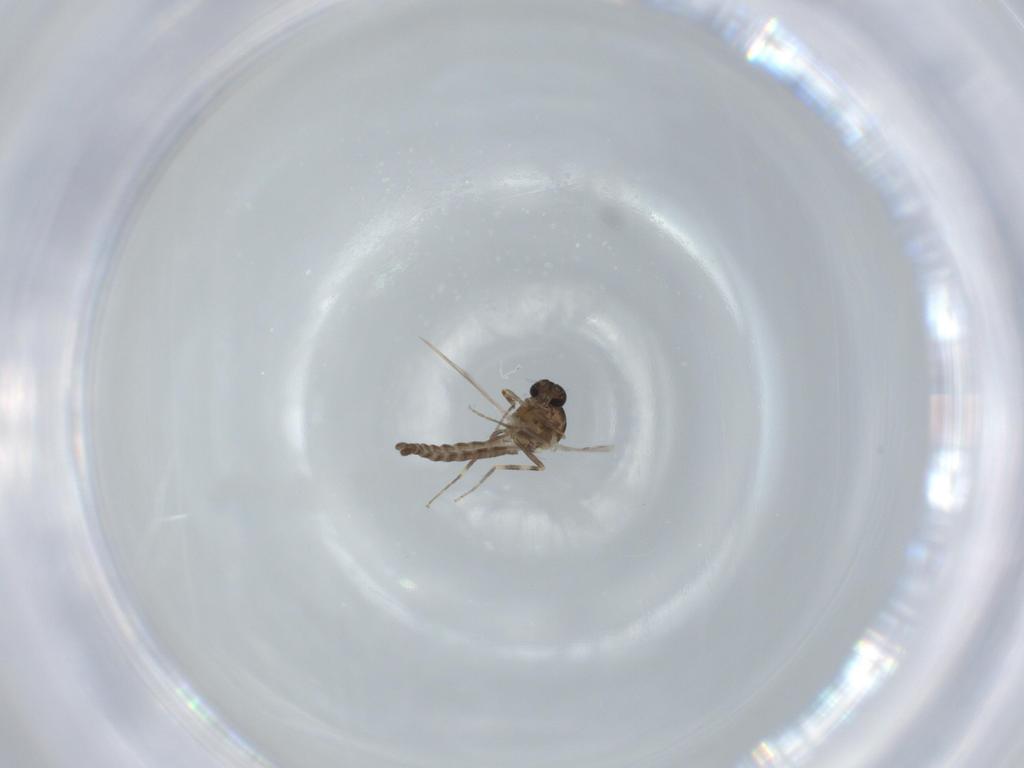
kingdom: Animalia
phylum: Arthropoda
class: Insecta
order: Diptera
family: Ceratopogonidae
